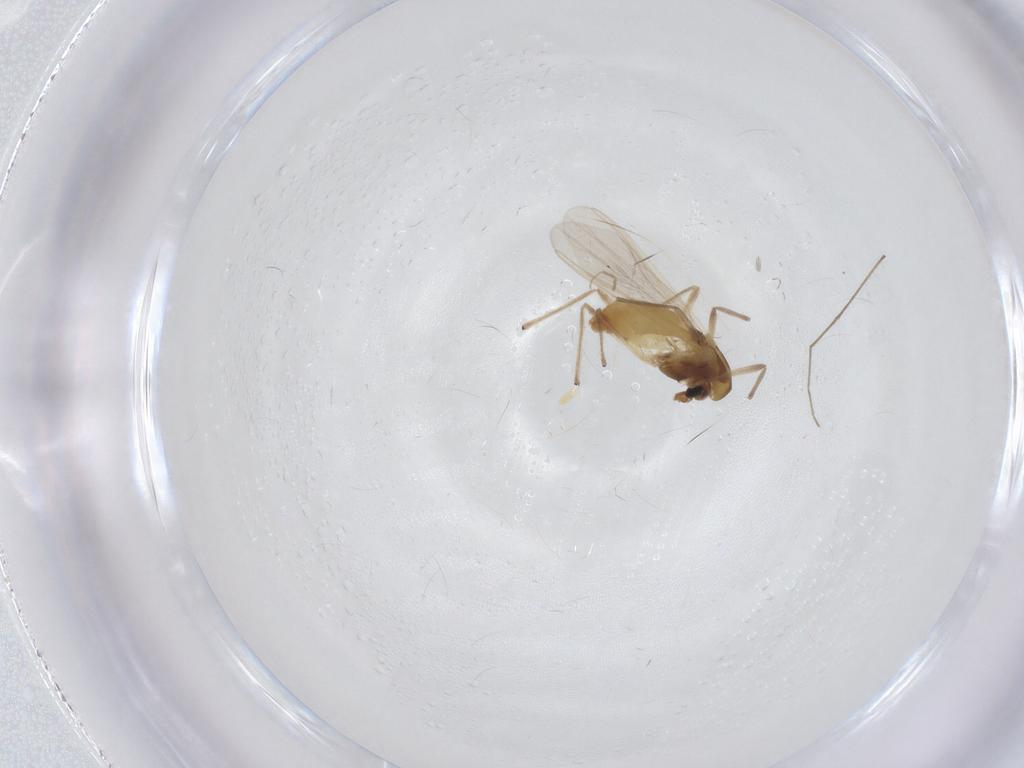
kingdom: Animalia
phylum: Arthropoda
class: Insecta
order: Diptera
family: Chironomidae
